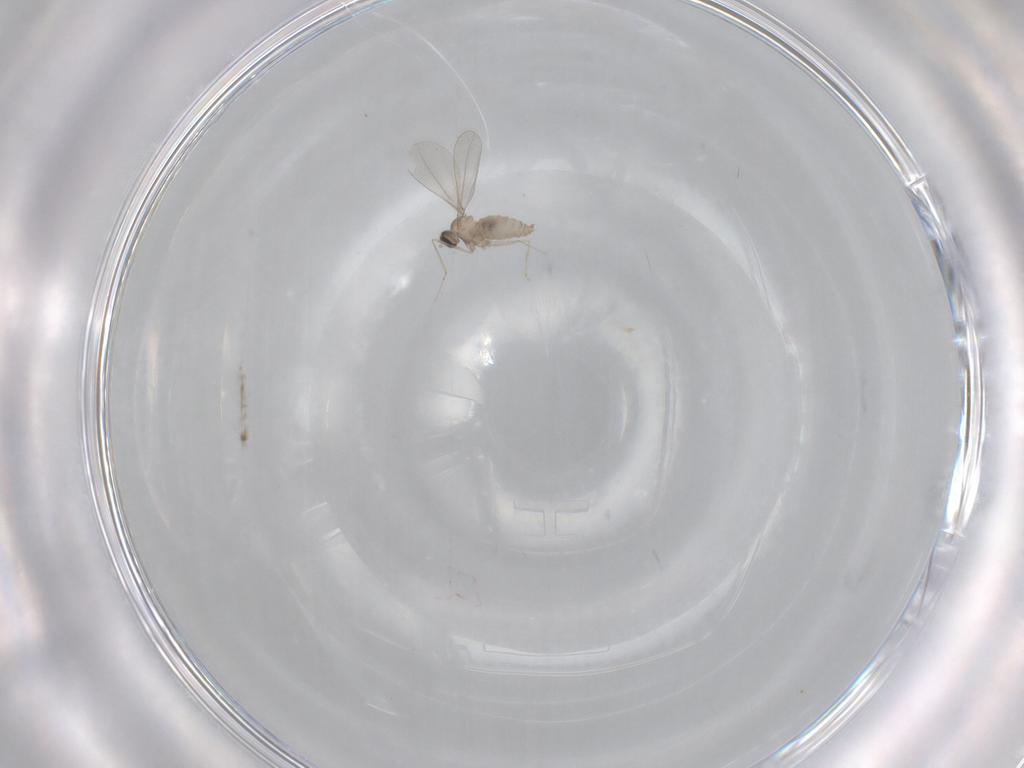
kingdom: Animalia
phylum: Arthropoda
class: Insecta
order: Diptera
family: Cecidomyiidae
